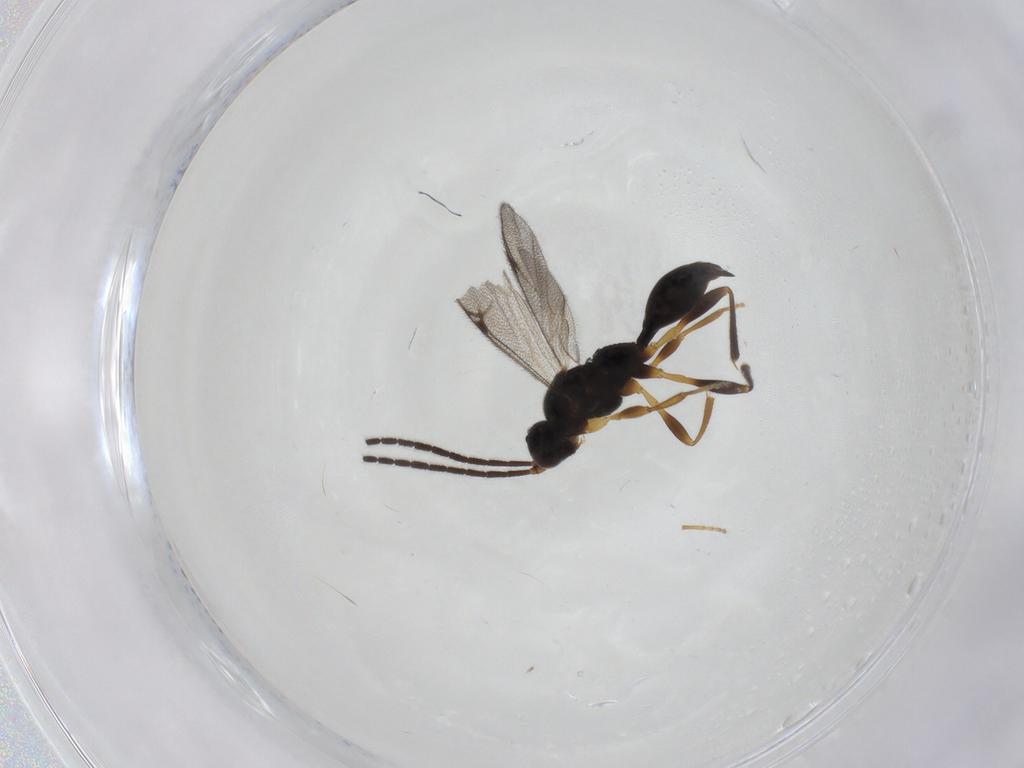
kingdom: Animalia
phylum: Arthropoda
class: Insecta
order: Hymenoptera
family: Proctotrupidae
